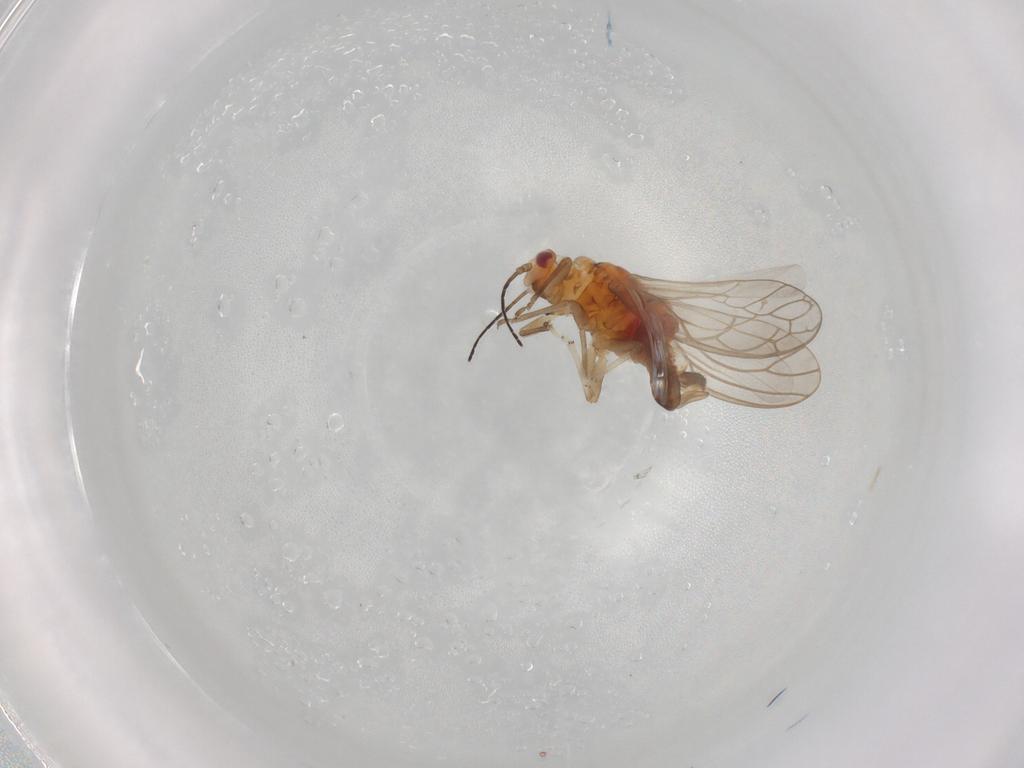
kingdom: Animalia
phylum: Arthropoda
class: Insecta
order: Hemiptera
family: Psylloidea_incertae_sedis
